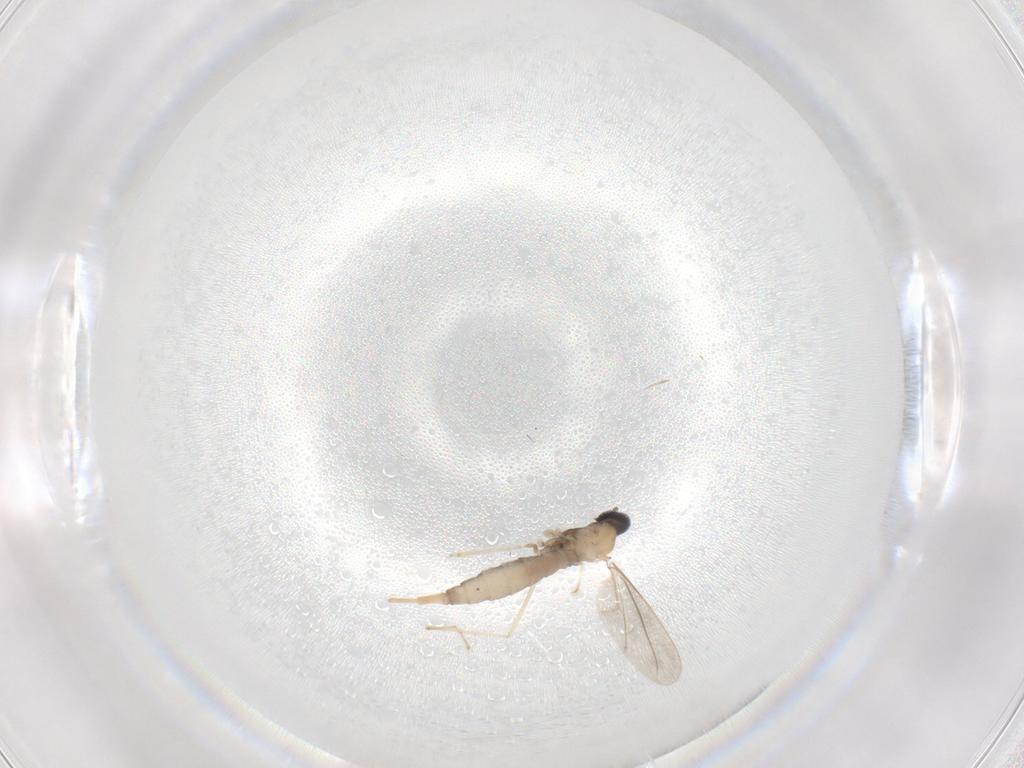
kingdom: Animalia
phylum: Arthropoda
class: Insecta
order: Diptera
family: Cecidomyiidae
